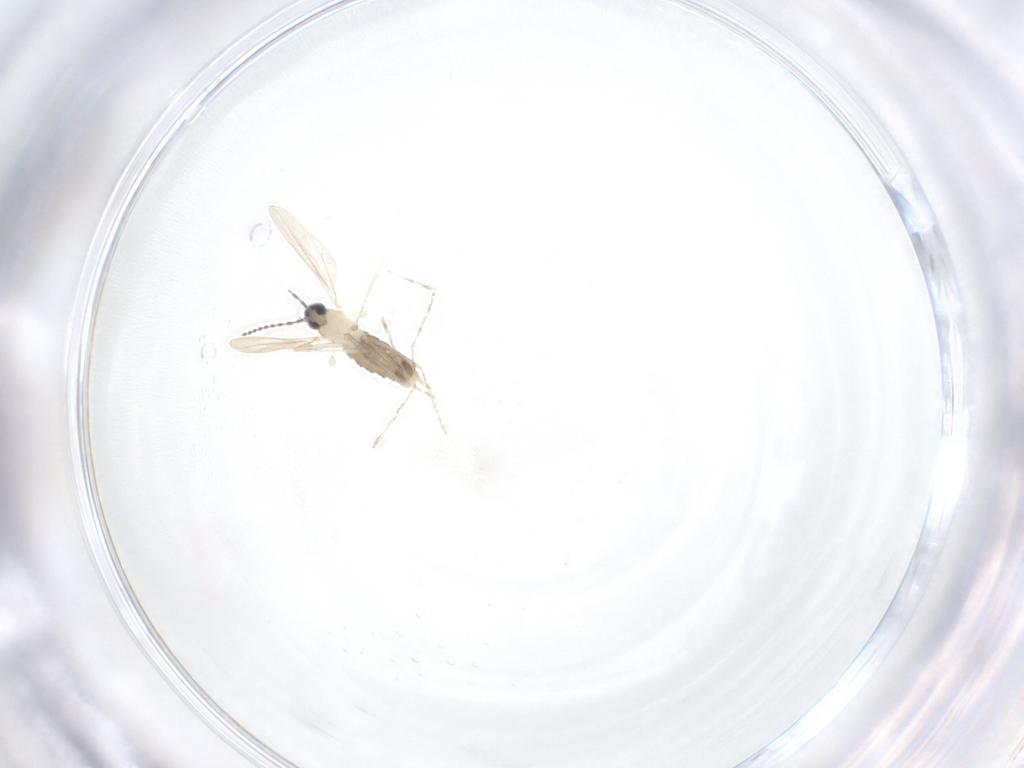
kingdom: Animalia
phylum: Arthropoda
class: Insecta
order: Diptera
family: Cecidomyiidae
